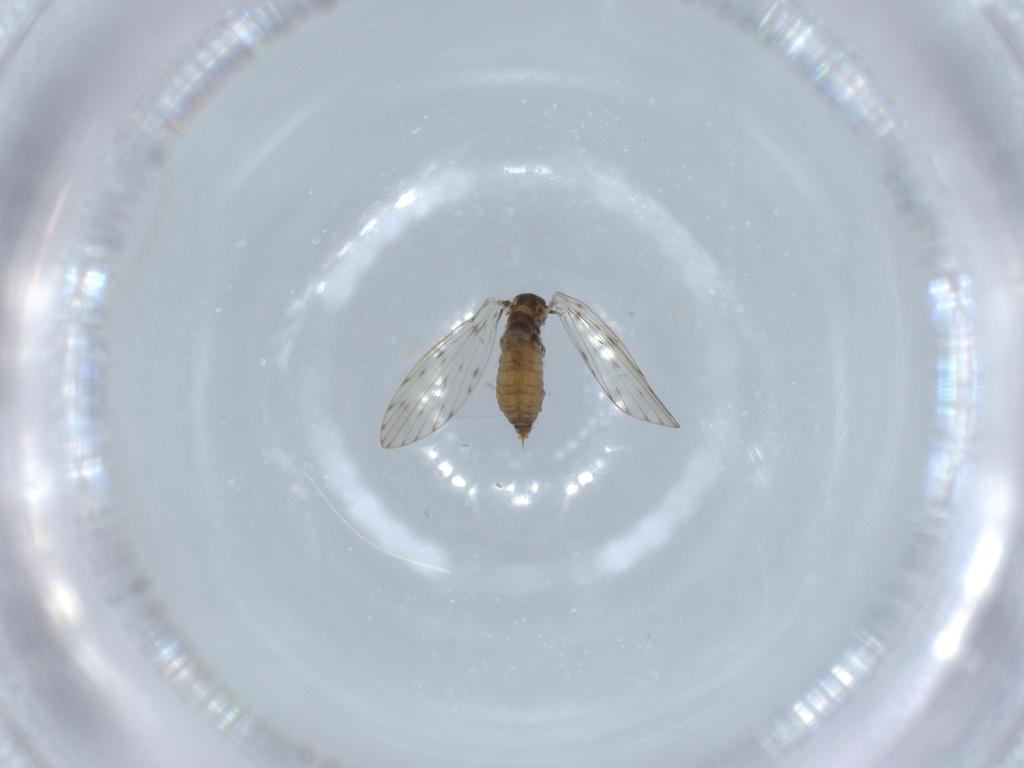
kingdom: Animalia
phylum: Arthropoda
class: Insecta
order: Diptera
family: Psychodidae
